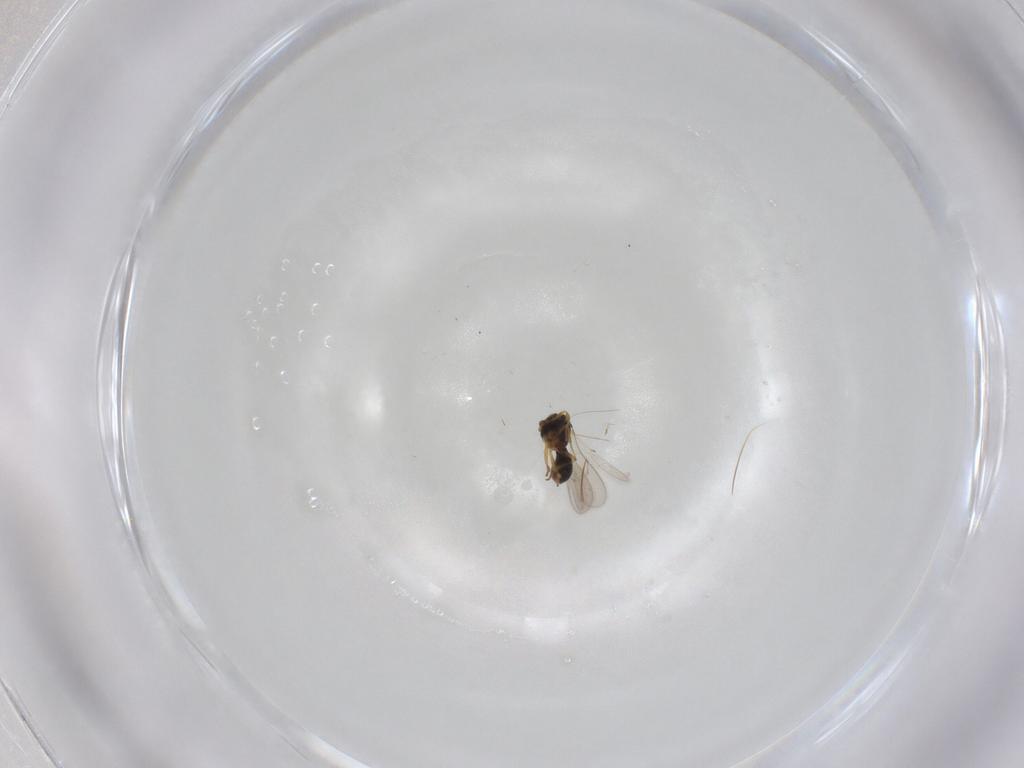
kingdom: Animalia
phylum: Arthropoda
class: Insecta
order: Hymenoptera
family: Scelionidae
